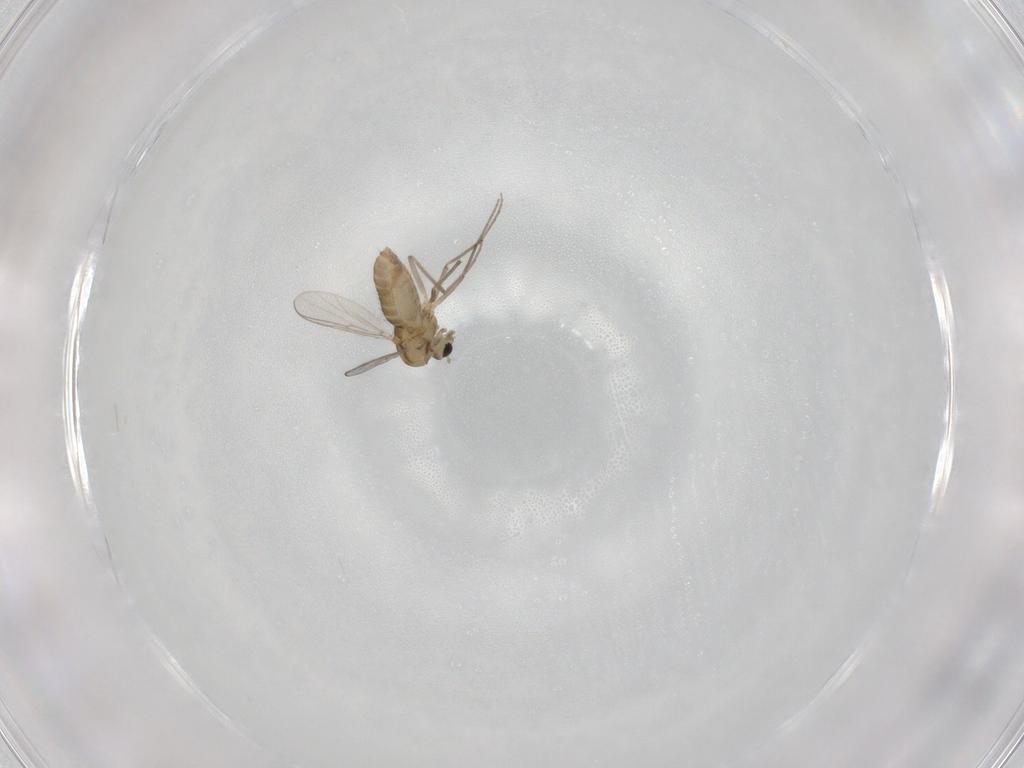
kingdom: Animalia
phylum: Arthropoda
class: Insecta
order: Diptera
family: Chironomidae
